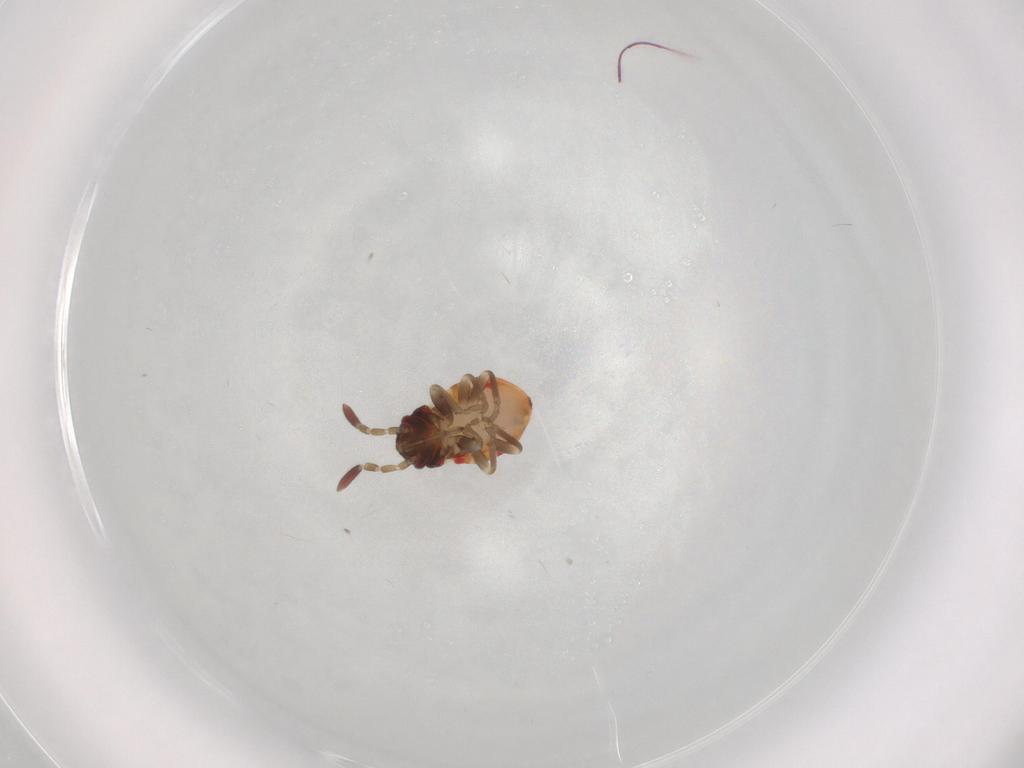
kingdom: Animalia
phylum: Arthropoda
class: Insecta
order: Hemiptera
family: Rhyparochromidae
